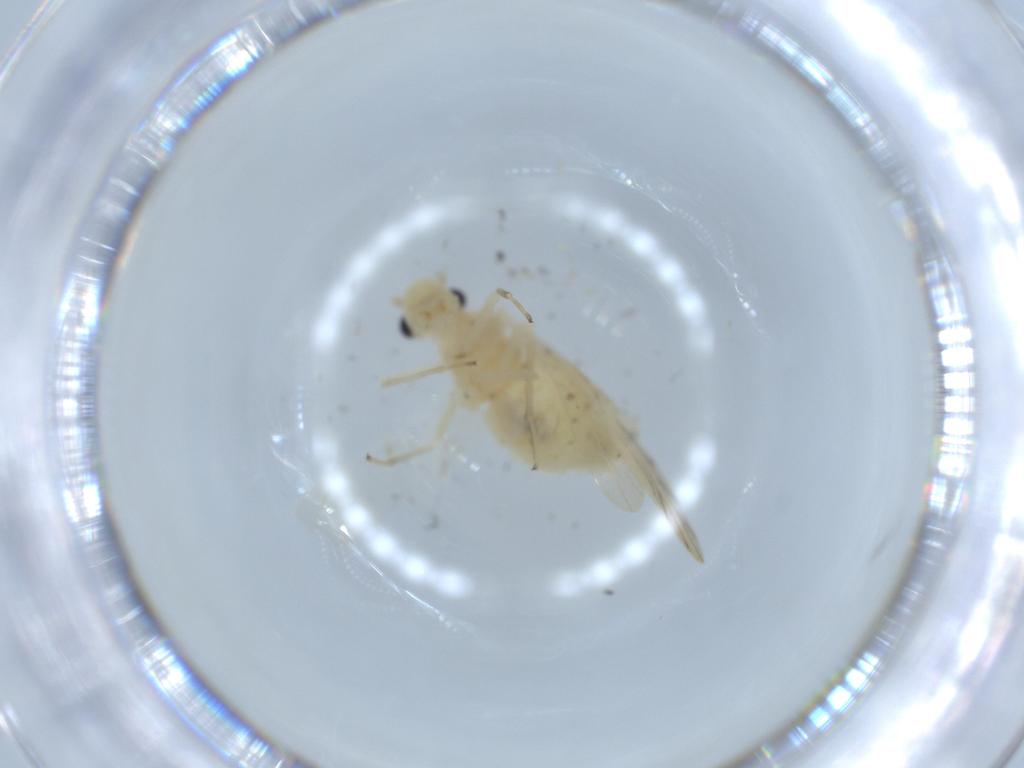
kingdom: Animalia
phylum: Arthropoda
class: Insecta
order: Psocodea
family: Caeciliusidae
